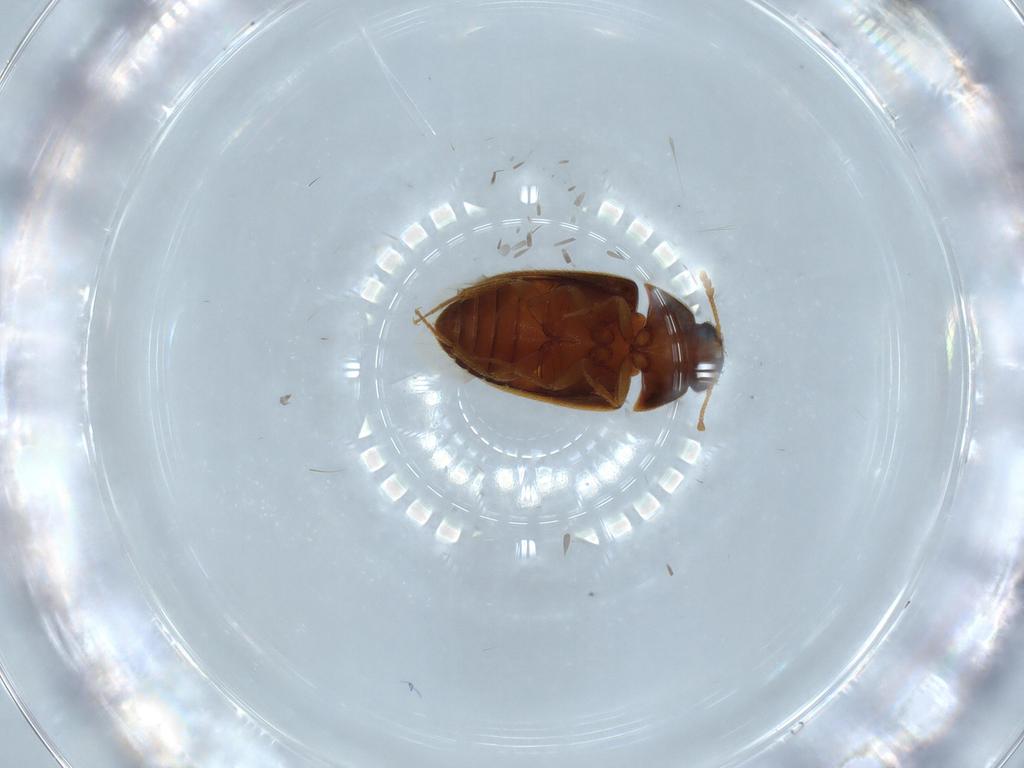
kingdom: Animalia
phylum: Arthropoda
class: Insecta
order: Coleoptera
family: Mycetophagidae
